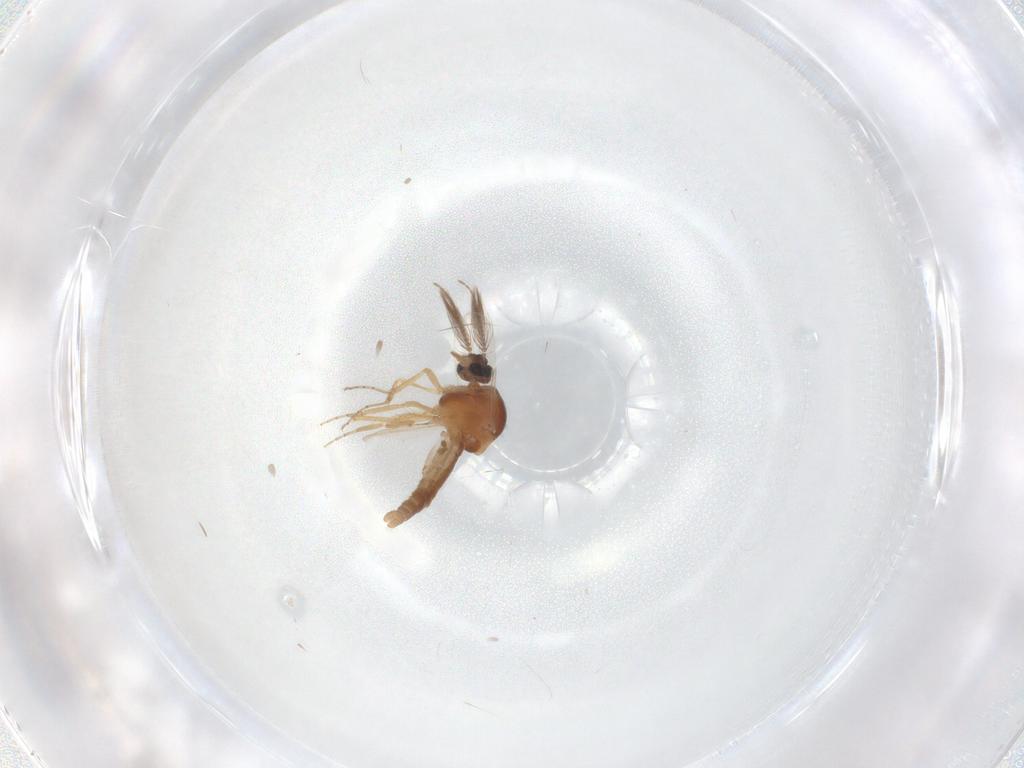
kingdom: Animalia
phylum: Arthropoda
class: Insecta
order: Diptera
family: Ceratopogonidae
